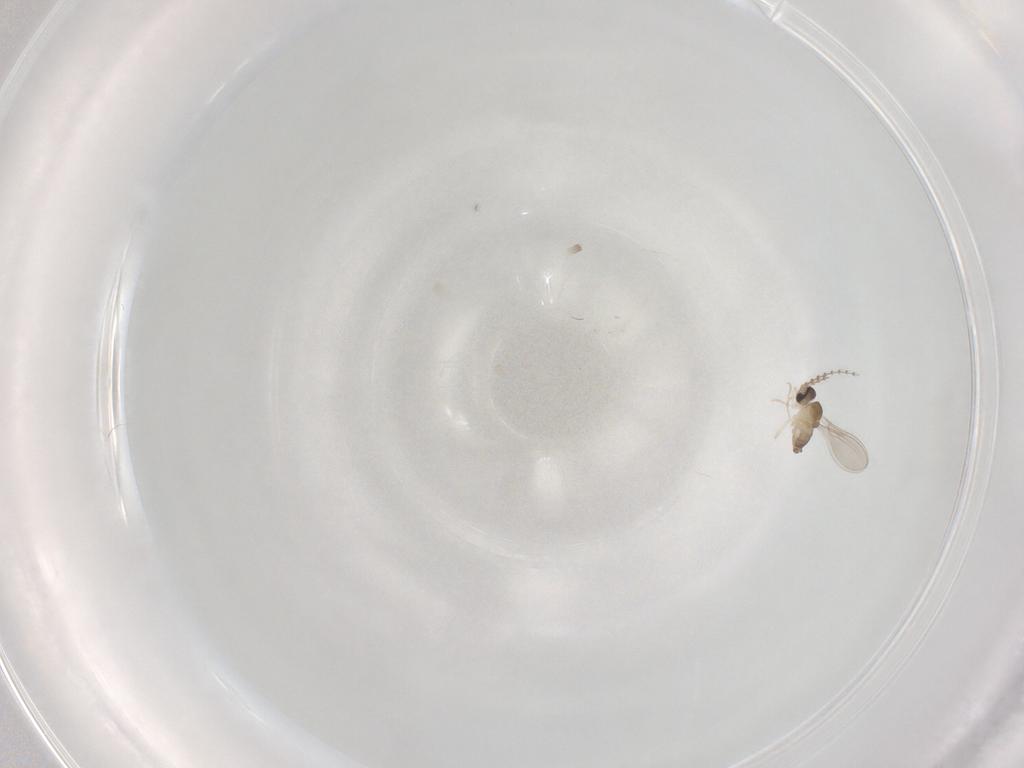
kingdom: Animalia
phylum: Arthropoda
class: Insecta
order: Diptera
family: Cecidomyiidae
